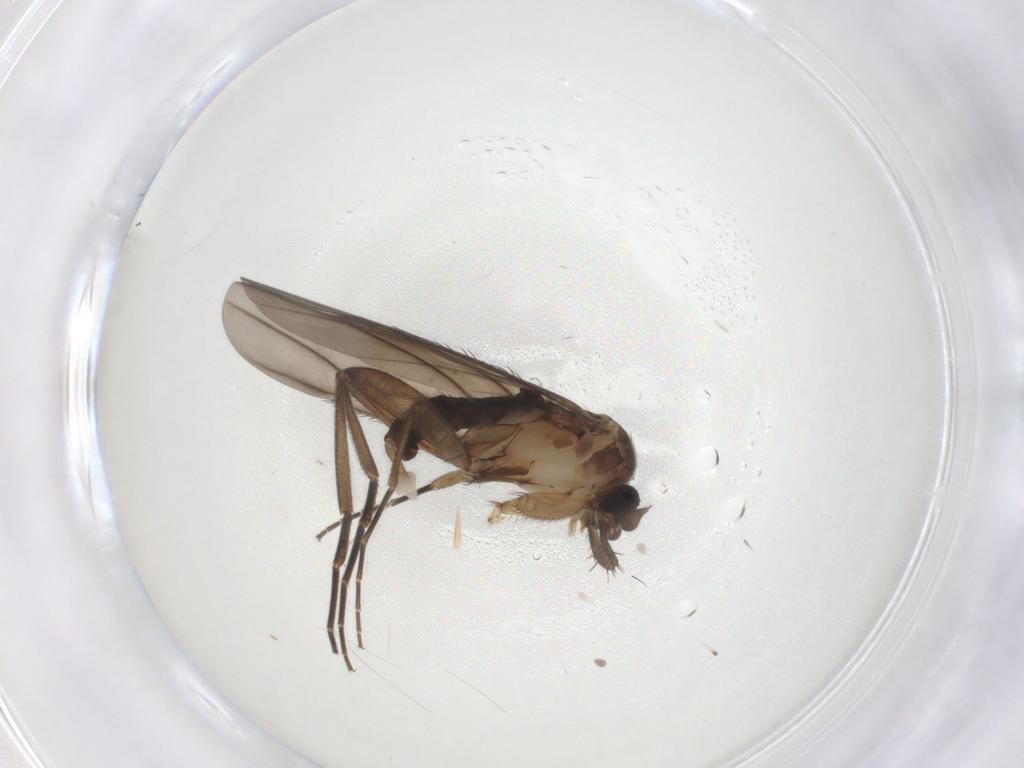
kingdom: Animalia
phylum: Arthropoda
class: Insecta
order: Diptera
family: Phoridae
